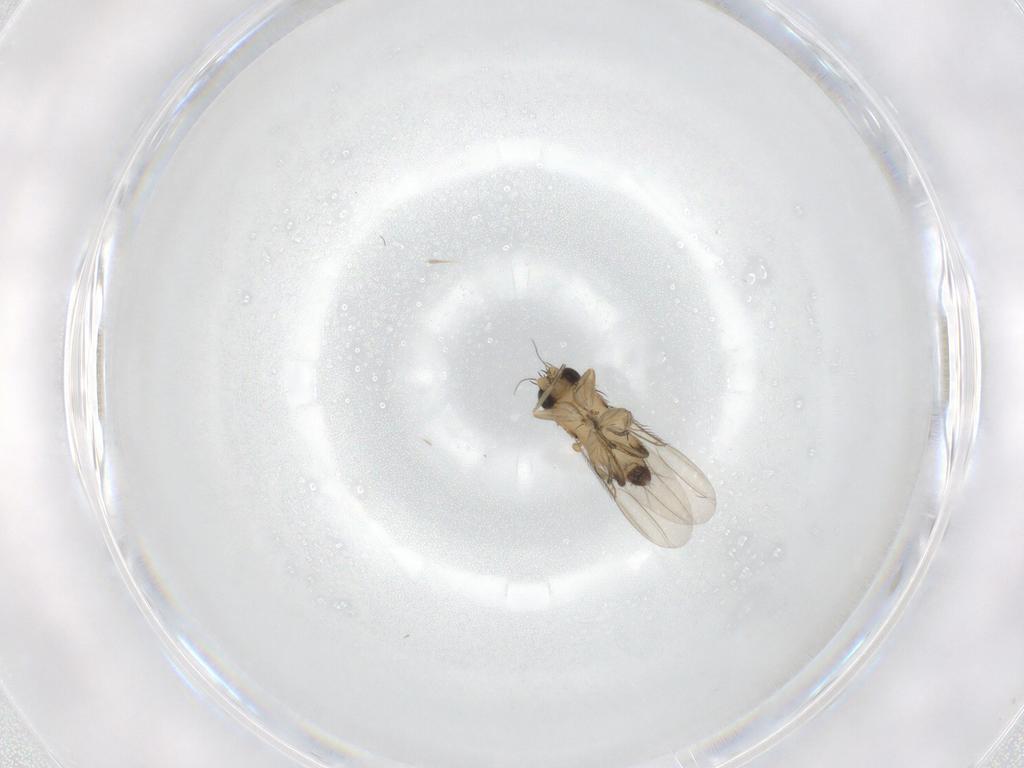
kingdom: Animalia
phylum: Arthropoda
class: Insecta
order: Diptera
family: Phoridae
